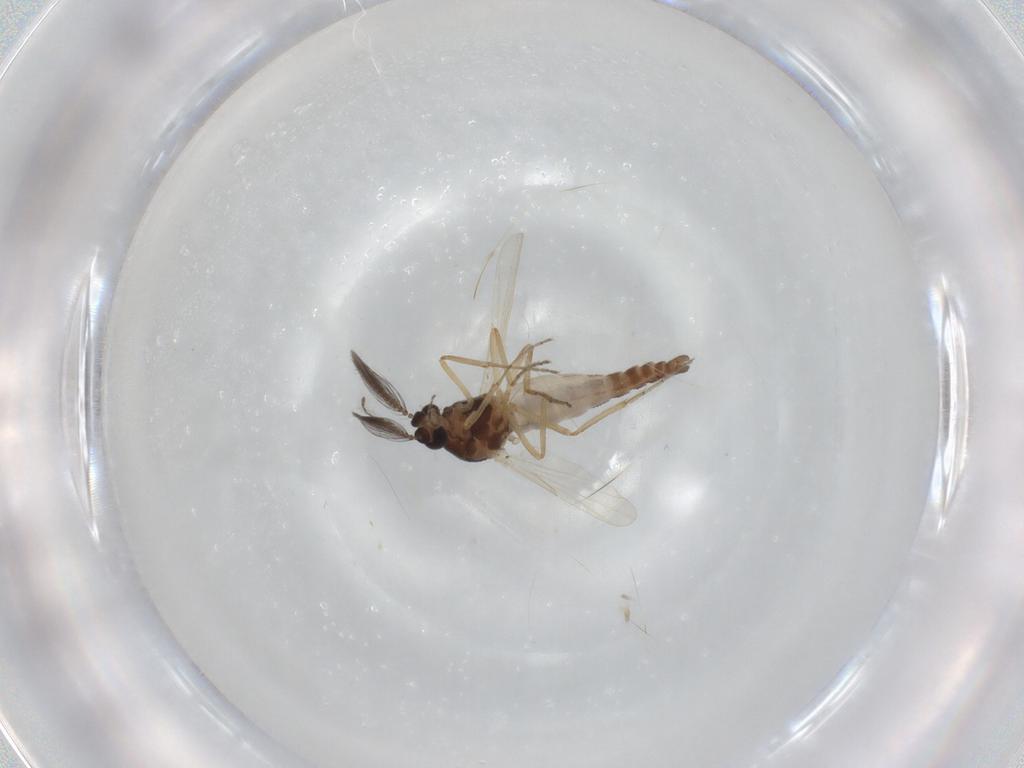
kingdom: Animalia
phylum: Arthropoda
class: Insecta
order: Diptera
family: Ceratopogonidae
